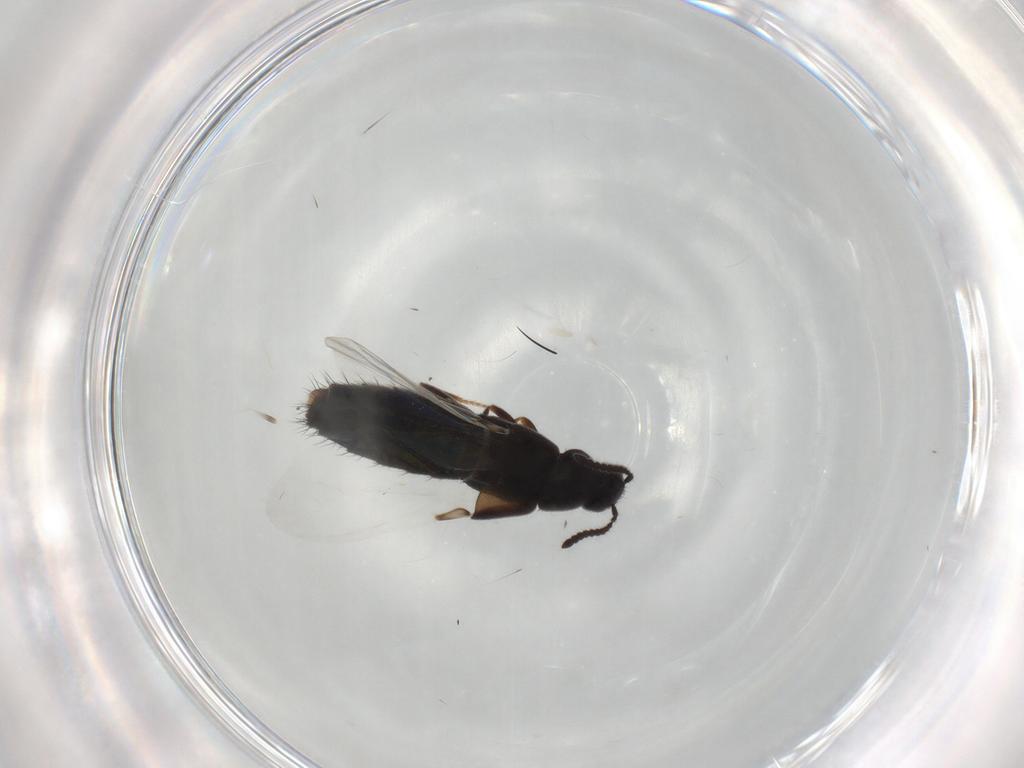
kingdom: Animalia
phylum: Arthropoda
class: Insecta
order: Coleoptera
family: Staphylinidae
